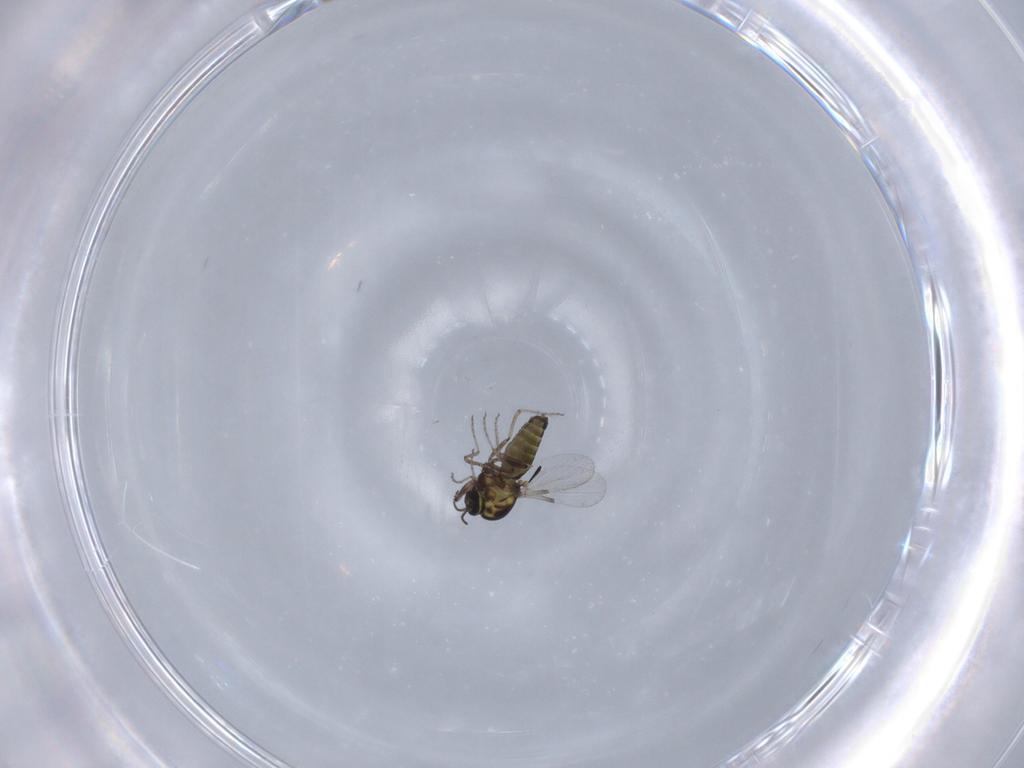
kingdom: Animalia
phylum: Arthropoda
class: Insecta
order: Diptera
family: Ceratopogonidae
